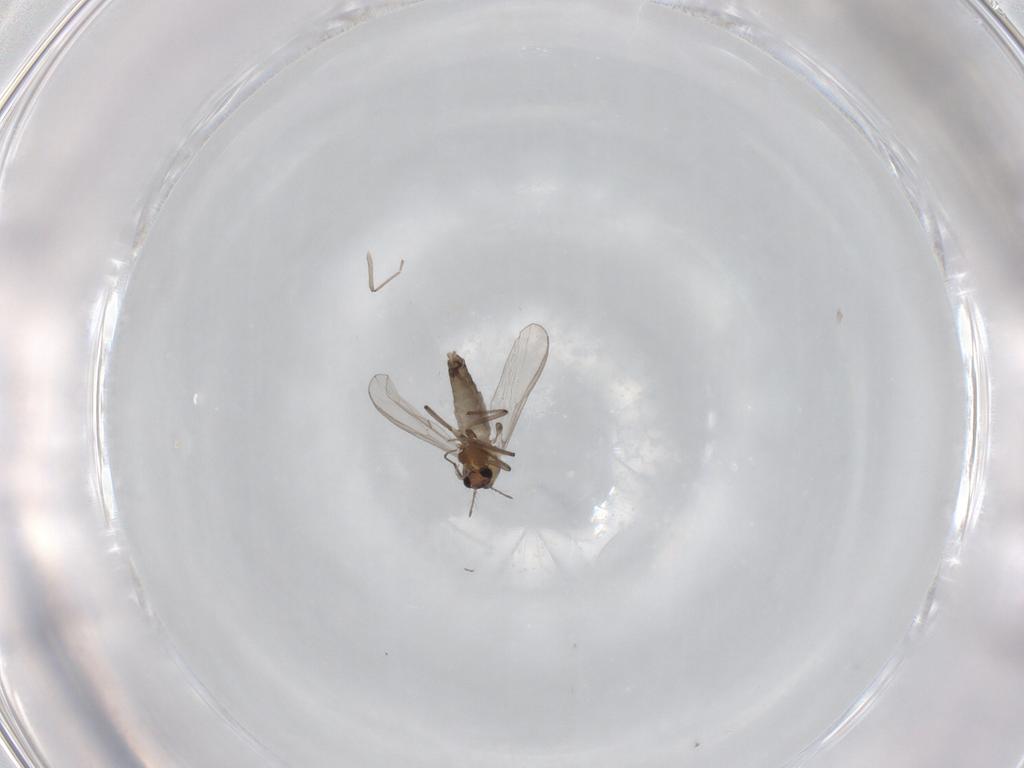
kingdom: Animalia
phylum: Arthropoda
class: Insecta
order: Diptera
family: Chironomidae
